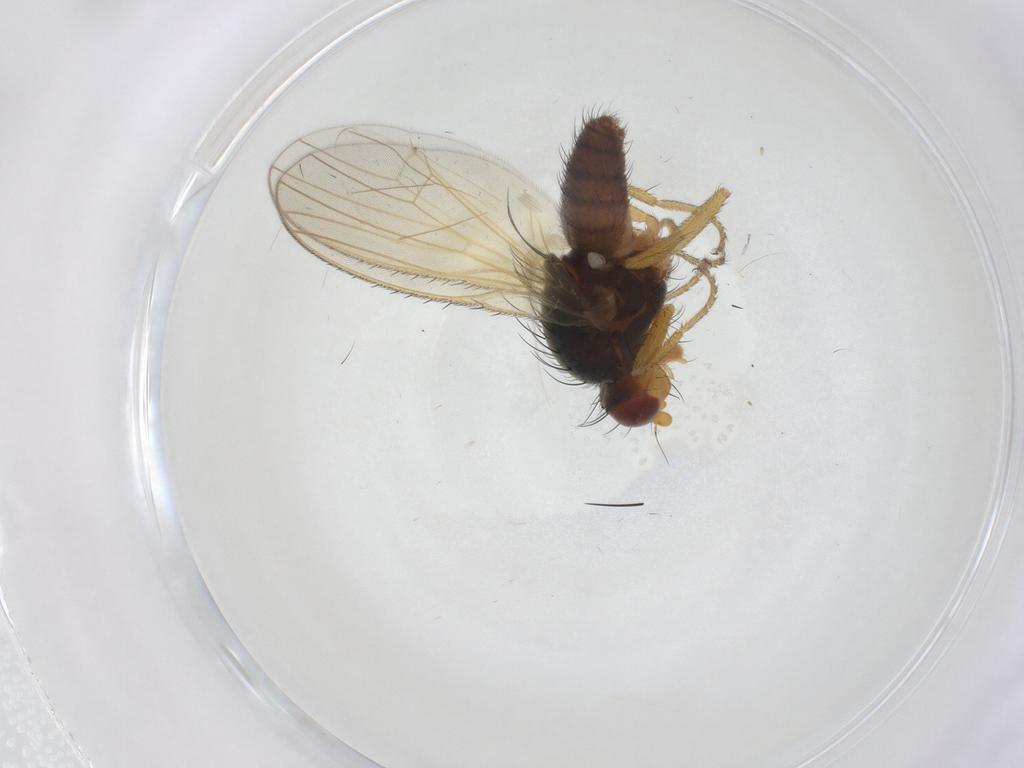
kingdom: Animalia
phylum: Arthropoda
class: Insecta
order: Diptera
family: Heleomyzidae
